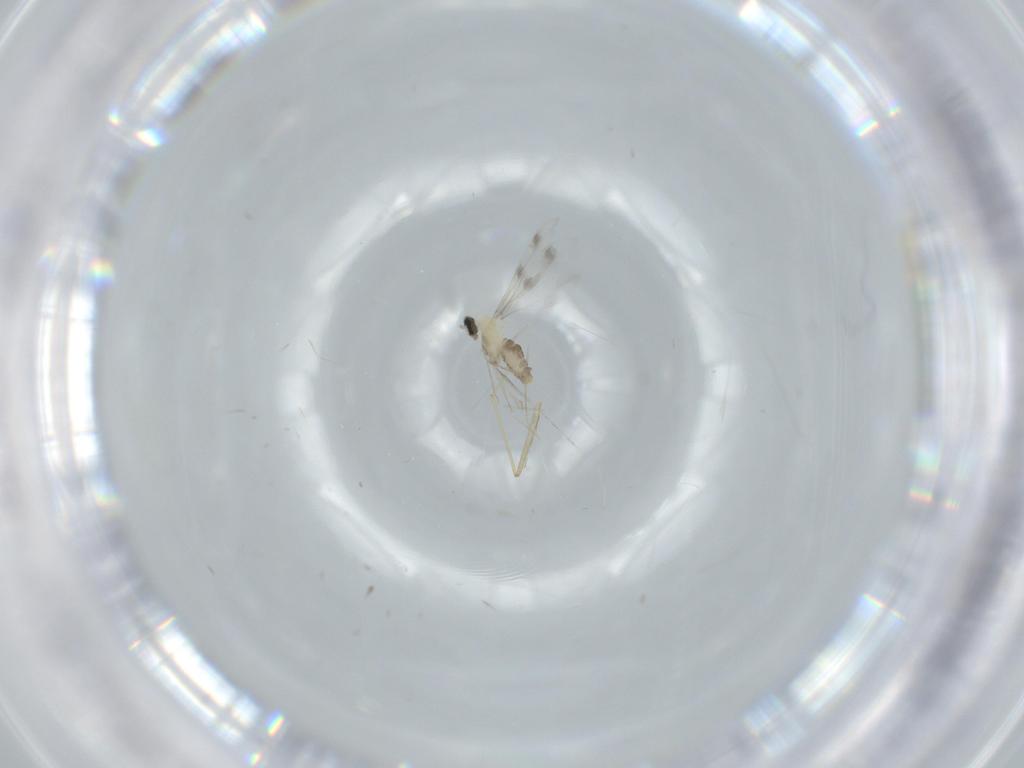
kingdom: Animalia
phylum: Arthropoda
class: Insecta
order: Diptera
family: Cecidomyiidae
